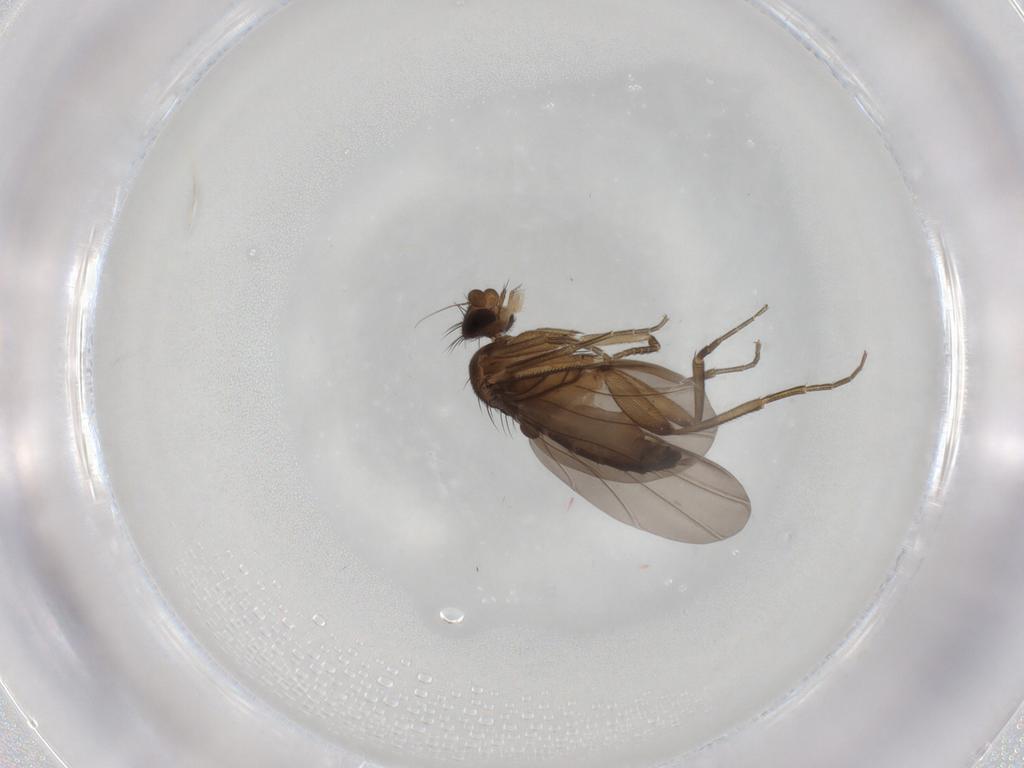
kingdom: Animalia
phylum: Arthropoda
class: Insecta
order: Diptera
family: Phoridae
